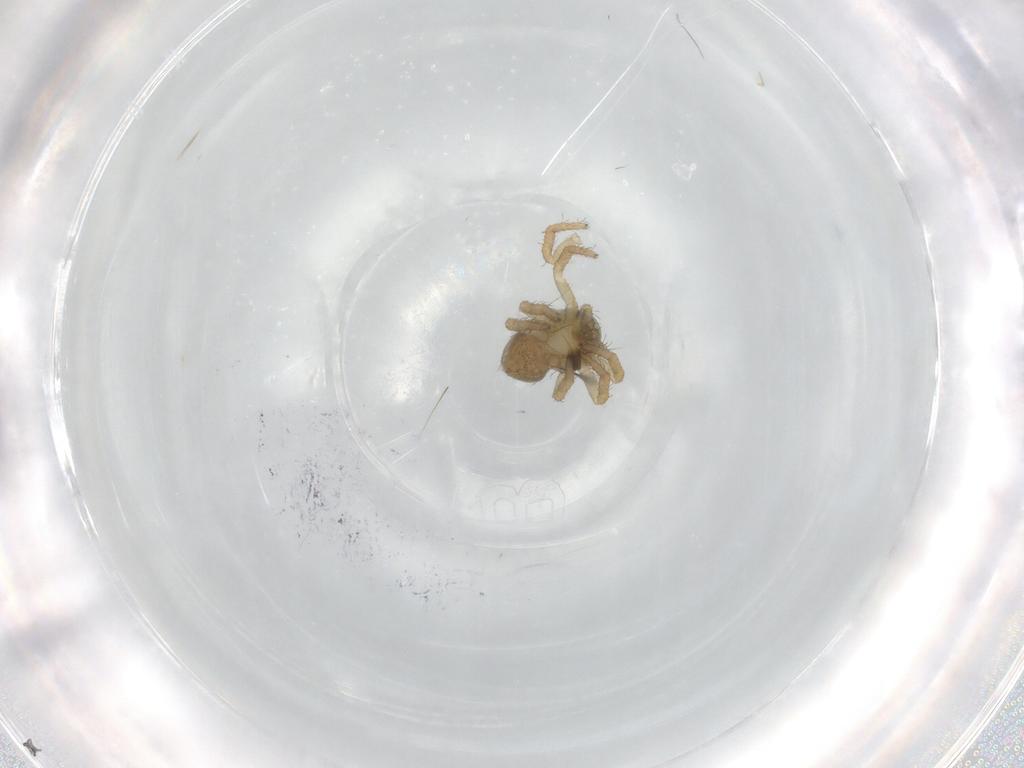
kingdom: Animalia
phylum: Arthropoda
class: Arachnida
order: Araneae
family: Thomisidae
